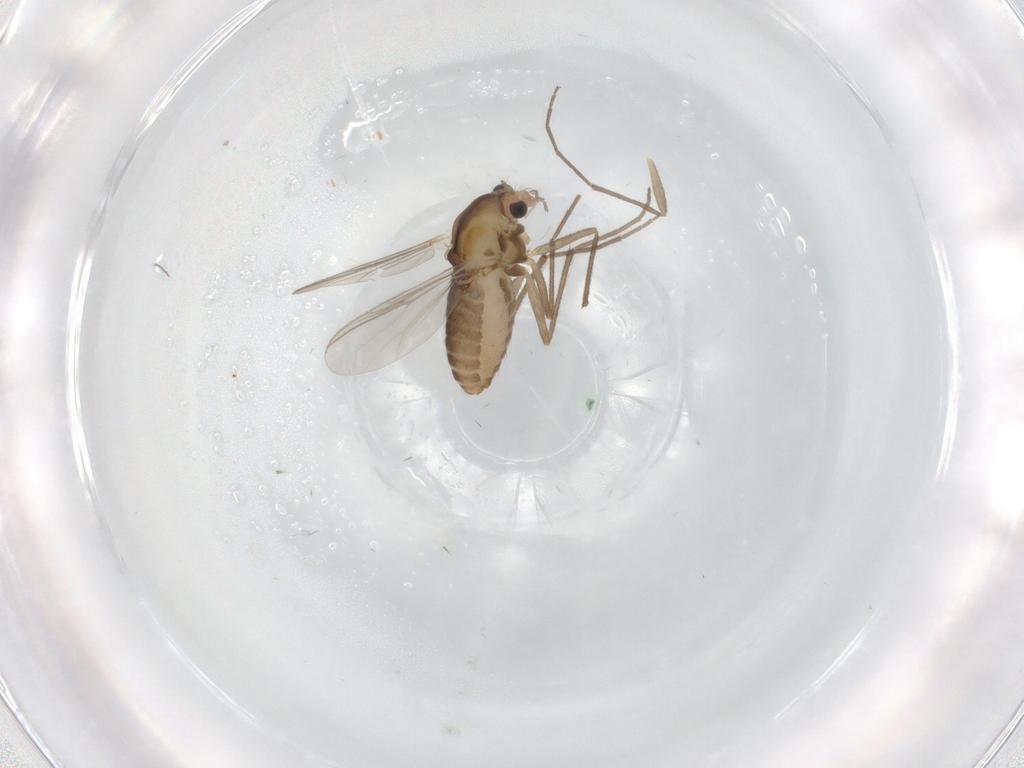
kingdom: Animalia
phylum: Arthropoda
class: Insecta
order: Diptera
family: Chironomidae
